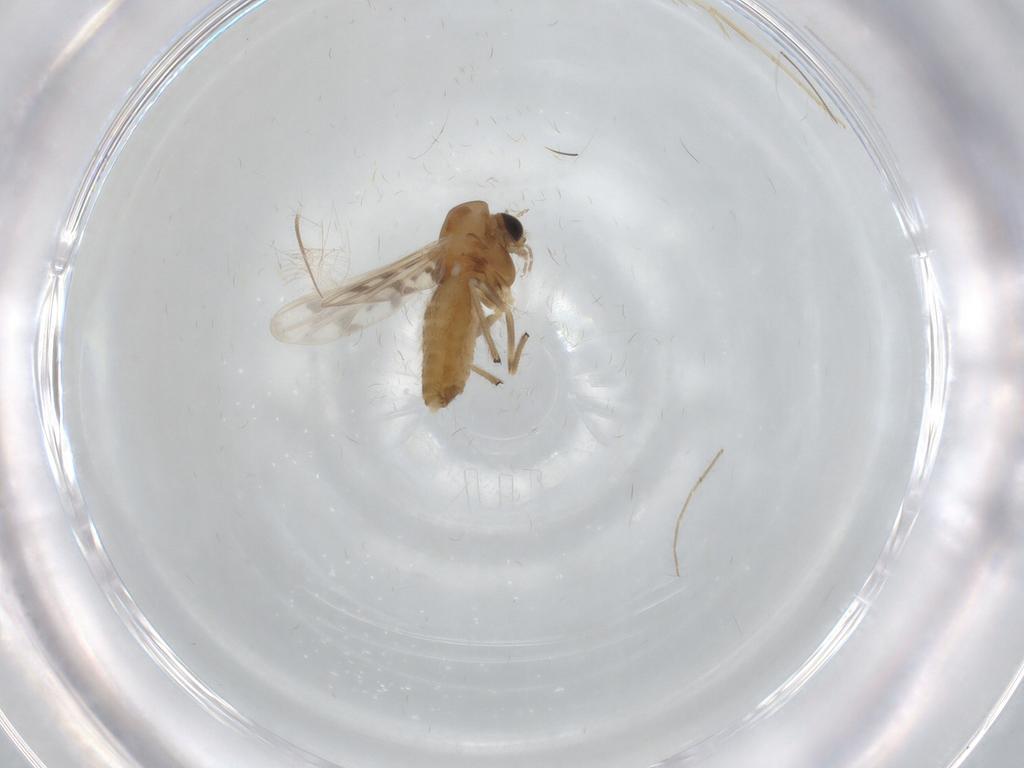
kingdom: Animalia
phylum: Arthropoda
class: Insecta
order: Diptera
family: Chironomidae
